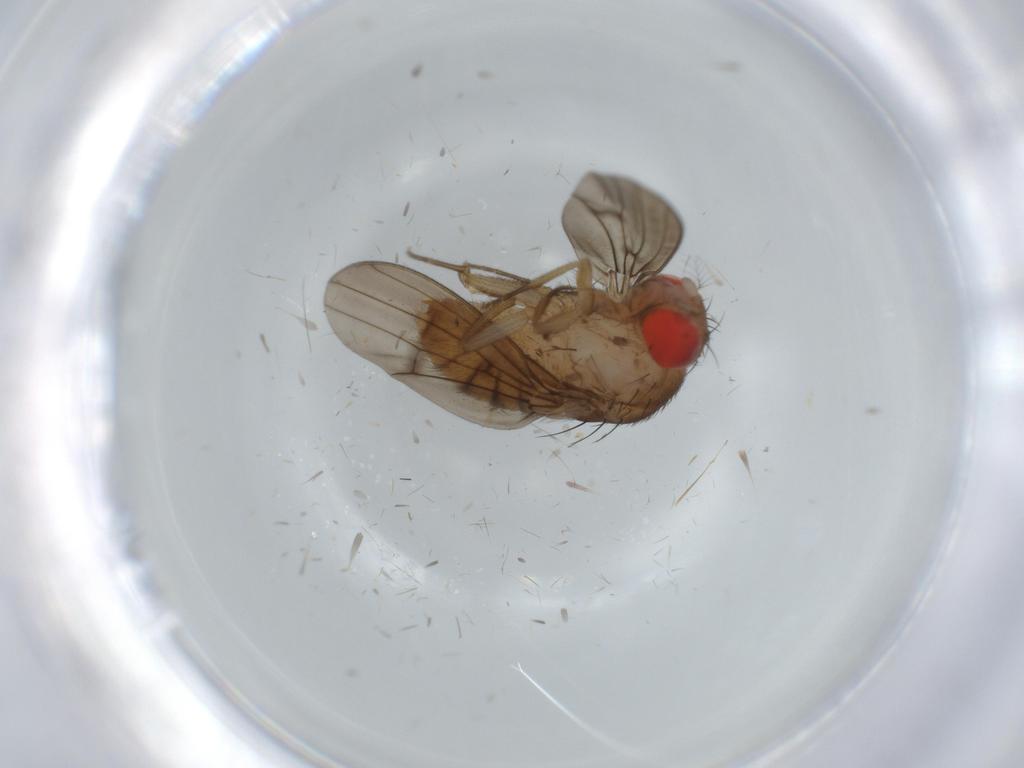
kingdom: Animalia
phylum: Arthropoda
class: Insecta
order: Diptera
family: Drosophilidae
